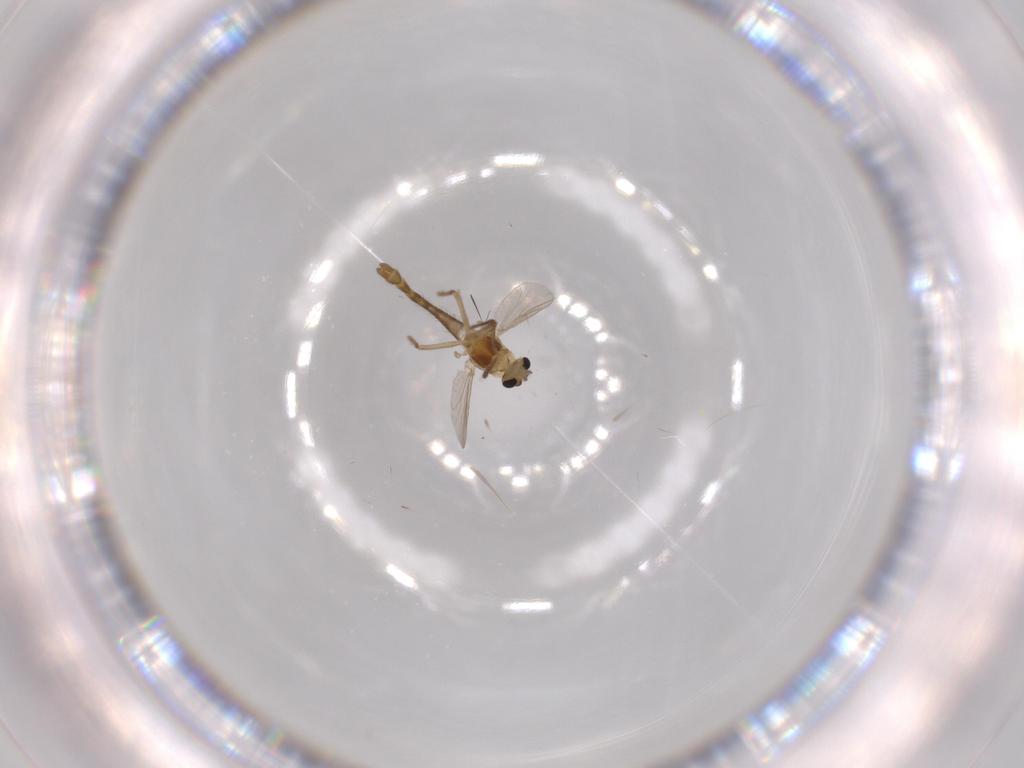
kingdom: Animalia
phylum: Arthropoda
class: Insecta
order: Diptera
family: Chironomidae
